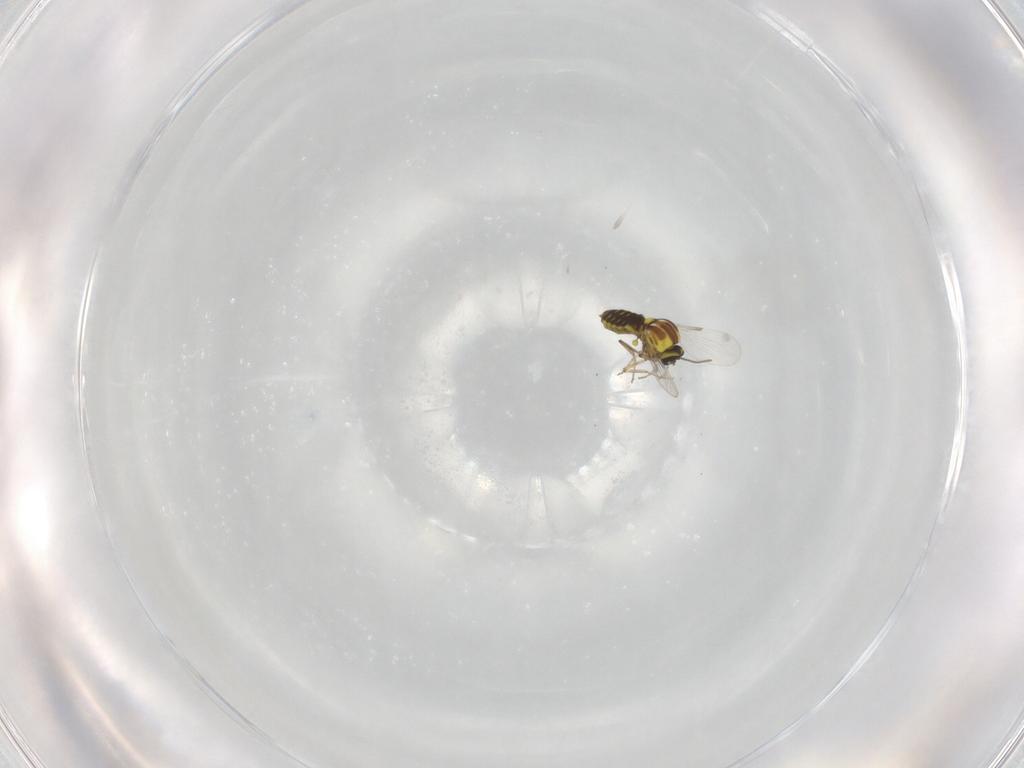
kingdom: Animalia
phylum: Arthropoda
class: Insecta
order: Diptera
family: Ceratopogonidae
